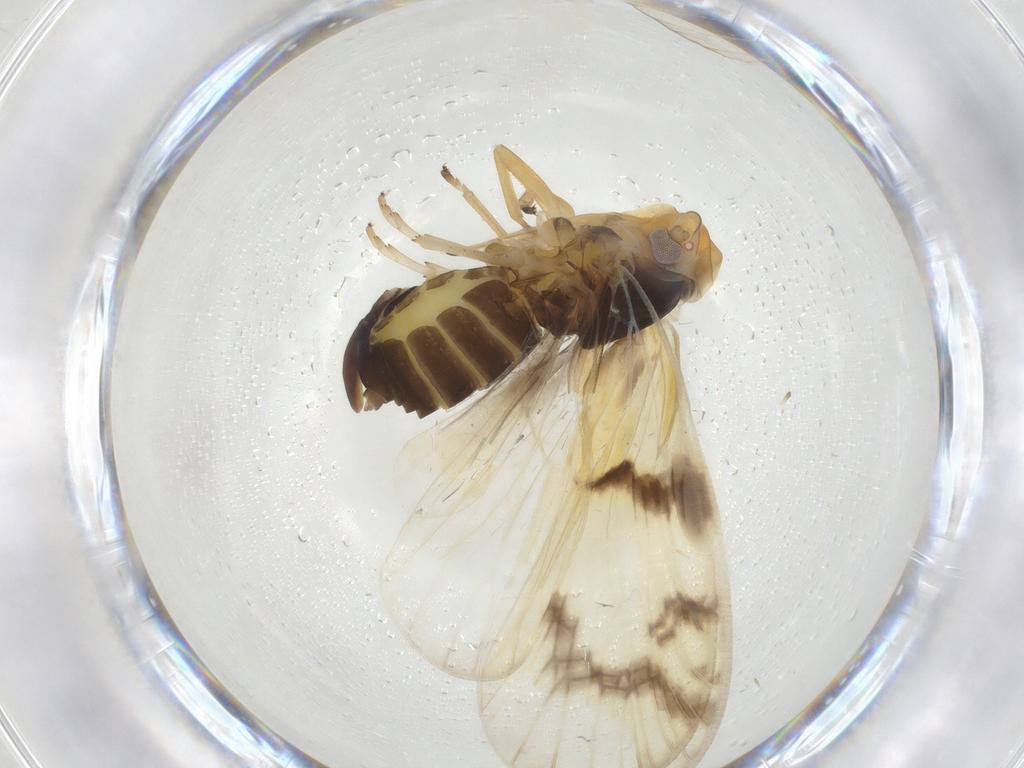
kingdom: Animalia
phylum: Arthropoda
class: Insecta
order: Hemiptera
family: Cixiidae
